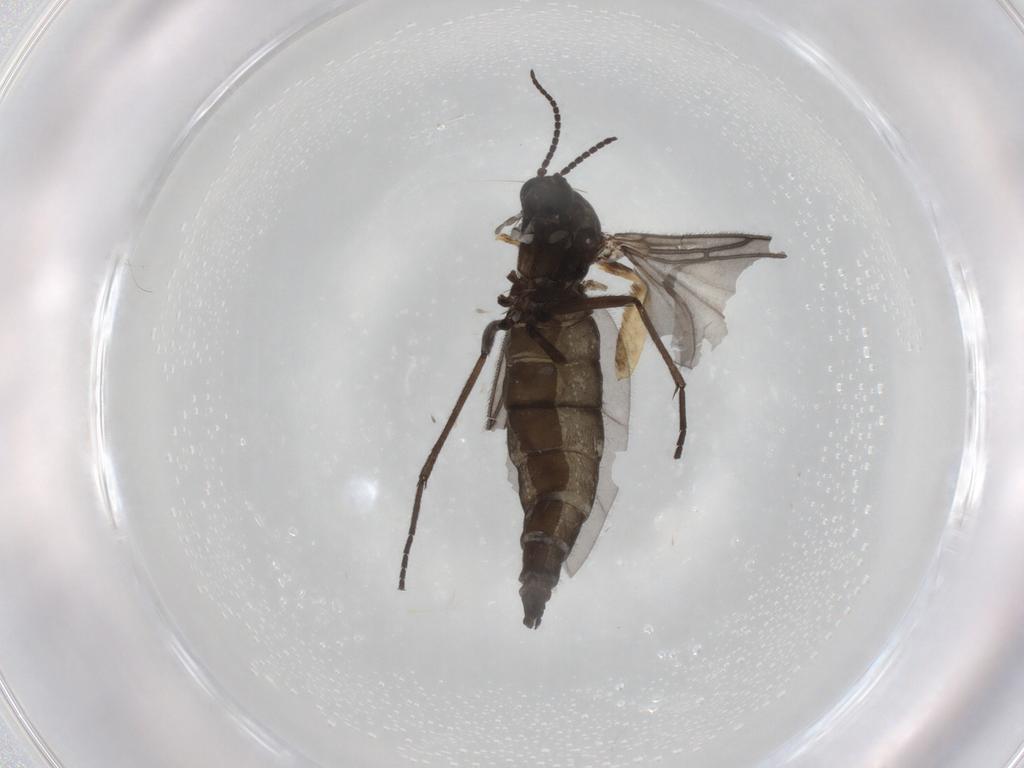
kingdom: Animalia
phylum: Arthropoda
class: Insecta
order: Diptera
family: Sciaridae
